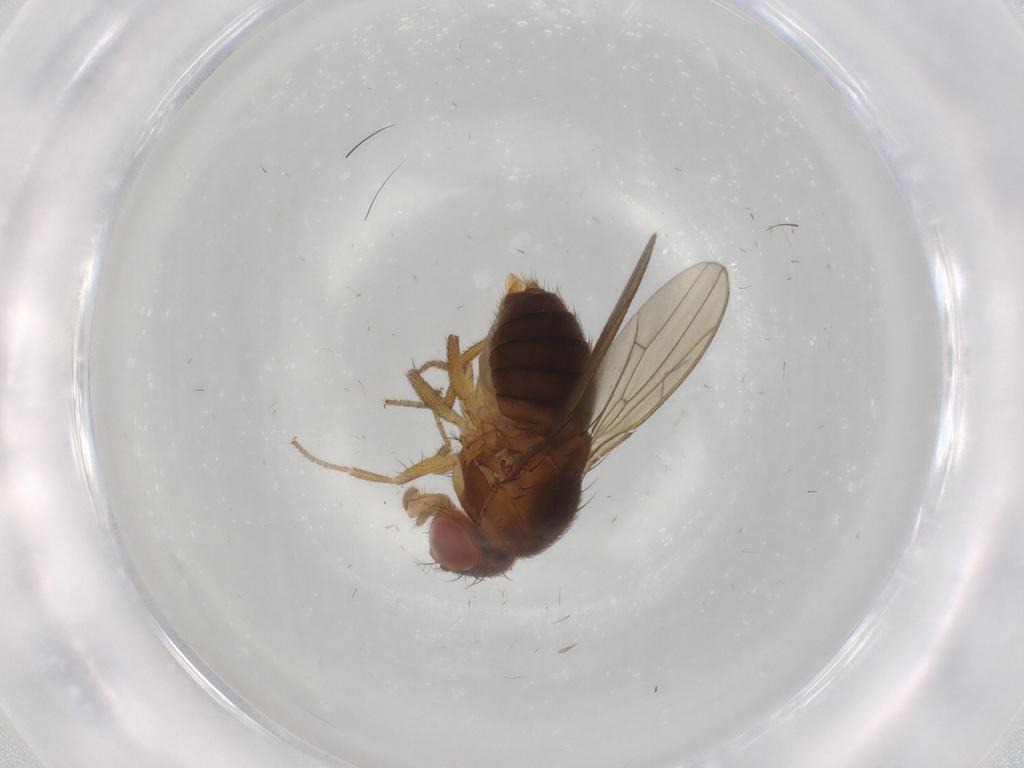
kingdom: Animalia
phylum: Arthropoda
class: Insecta
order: Diptera
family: Drosophilidae
